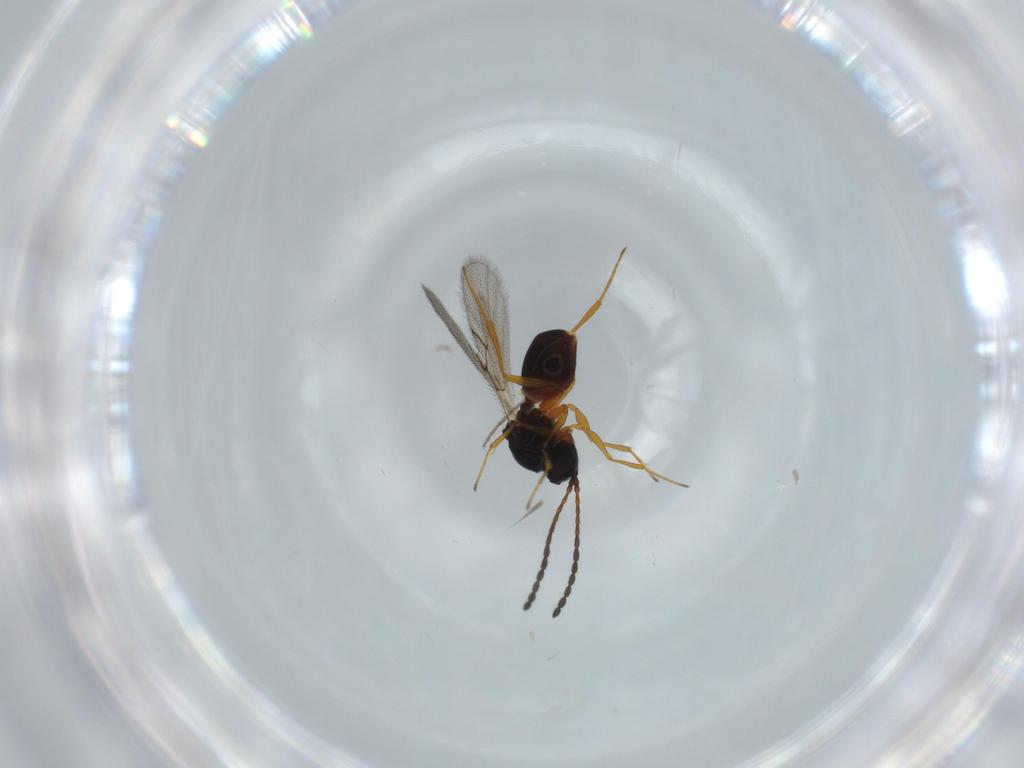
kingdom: Animalia
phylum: Arthropoda
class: Insecta
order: Hymenoptera
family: Figitidae
